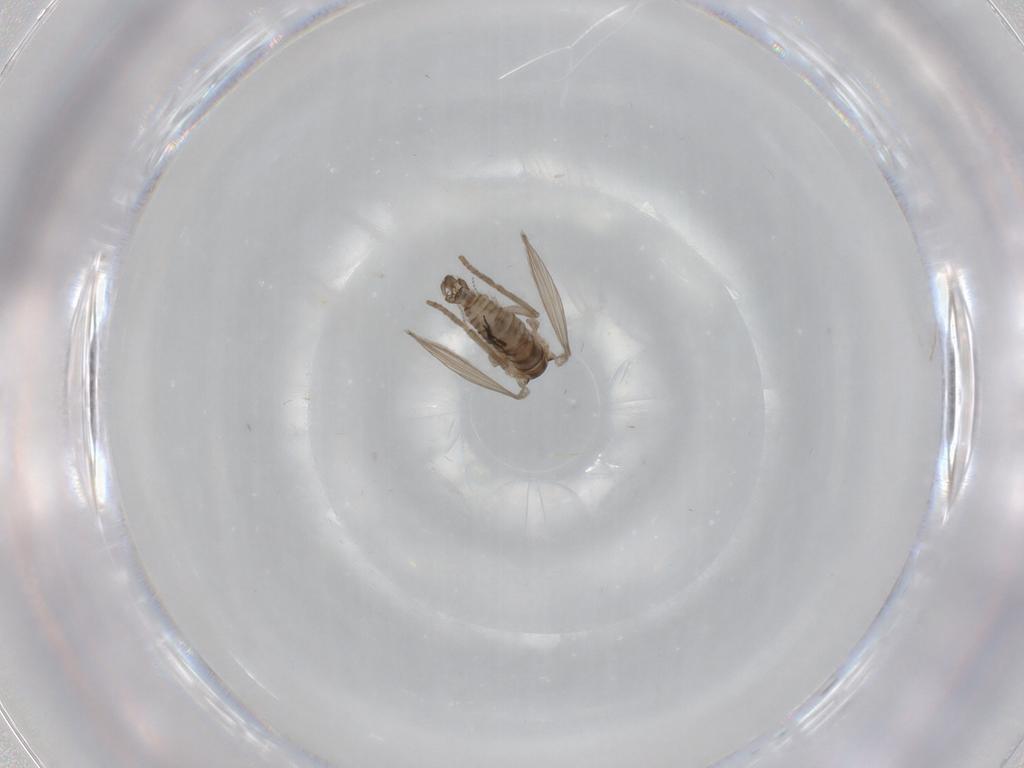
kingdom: Animalia
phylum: Arthropoda
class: Insecta
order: Diptera
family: Psychodidae
